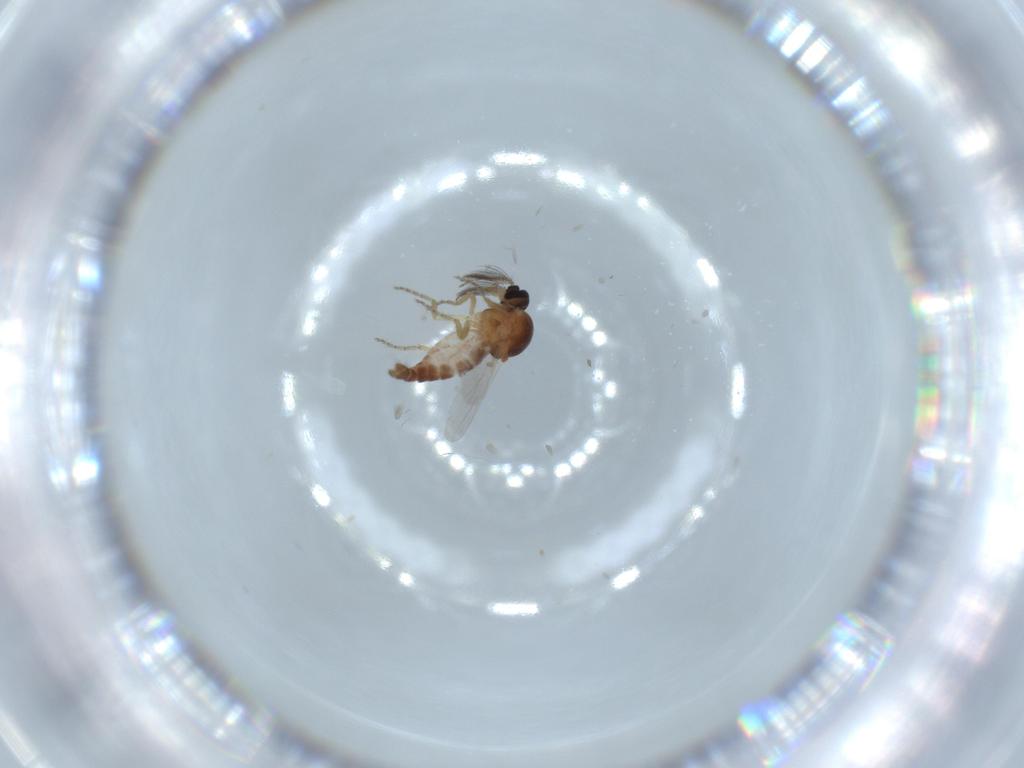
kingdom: Animalia
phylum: Arthropoda
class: Insecta
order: Diptera
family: Ceratopogonidae
